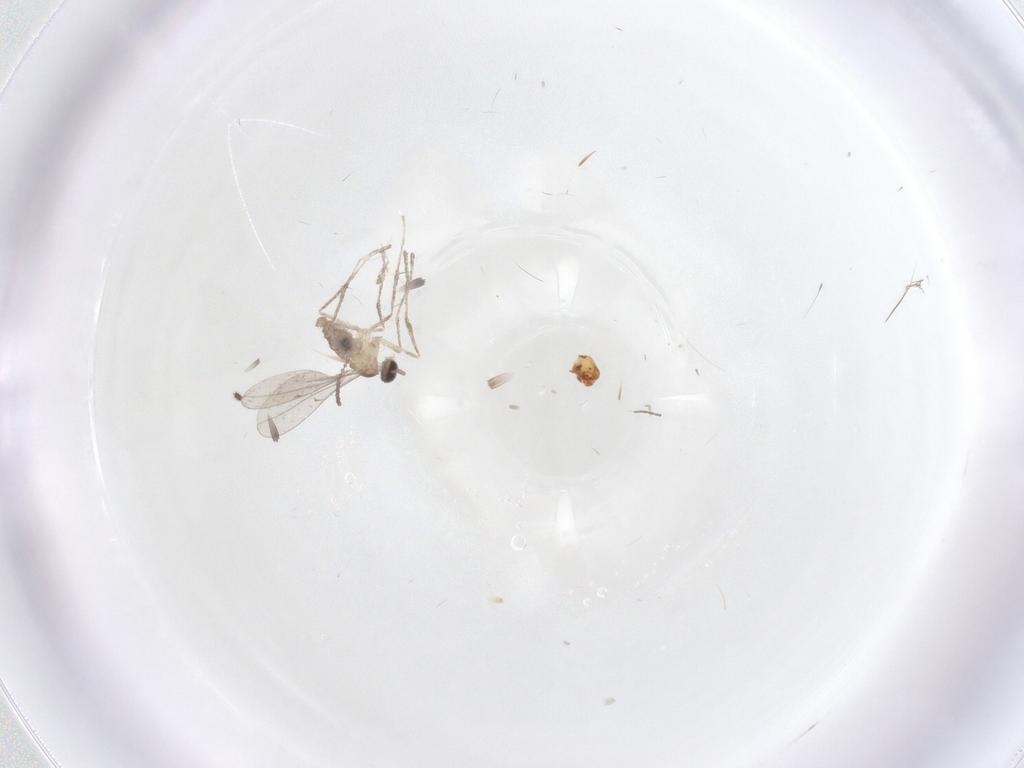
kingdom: Animalia
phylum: Arthropoda
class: Insecta
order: Diptera
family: Cecidomyiidae
